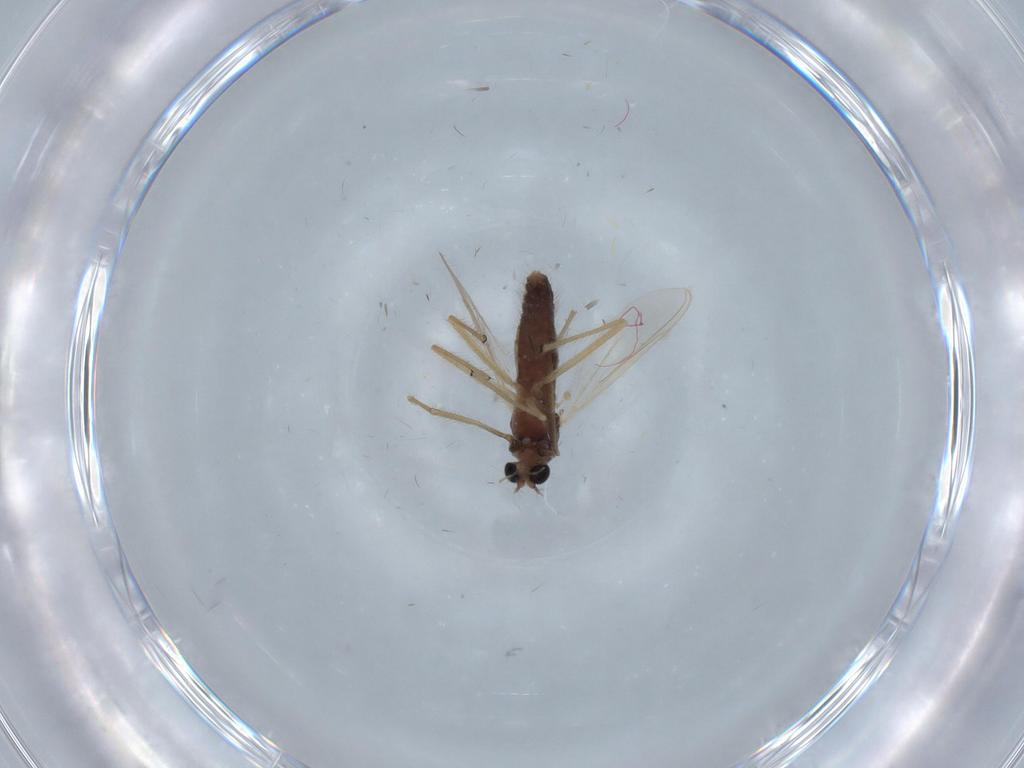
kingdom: Animalia
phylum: Arthropoda
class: Insecta
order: Diptera
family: Chironomidae
